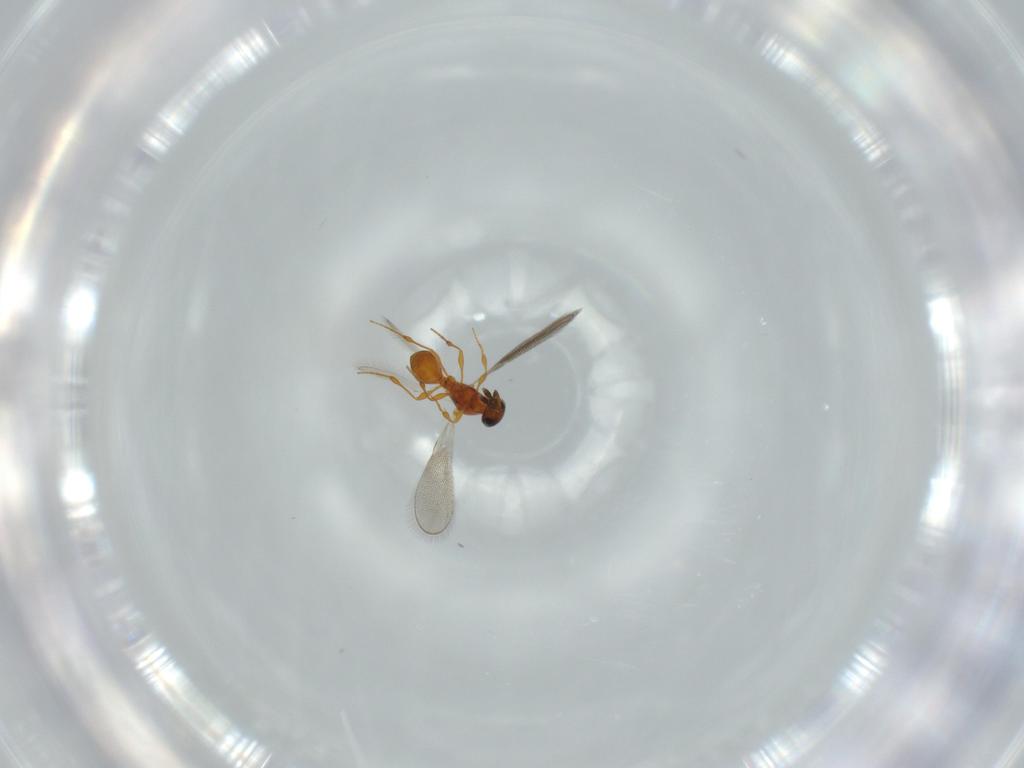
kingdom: Animalia
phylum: Arthropoda
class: Insecta
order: Hymenoptera
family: Platygastridae
